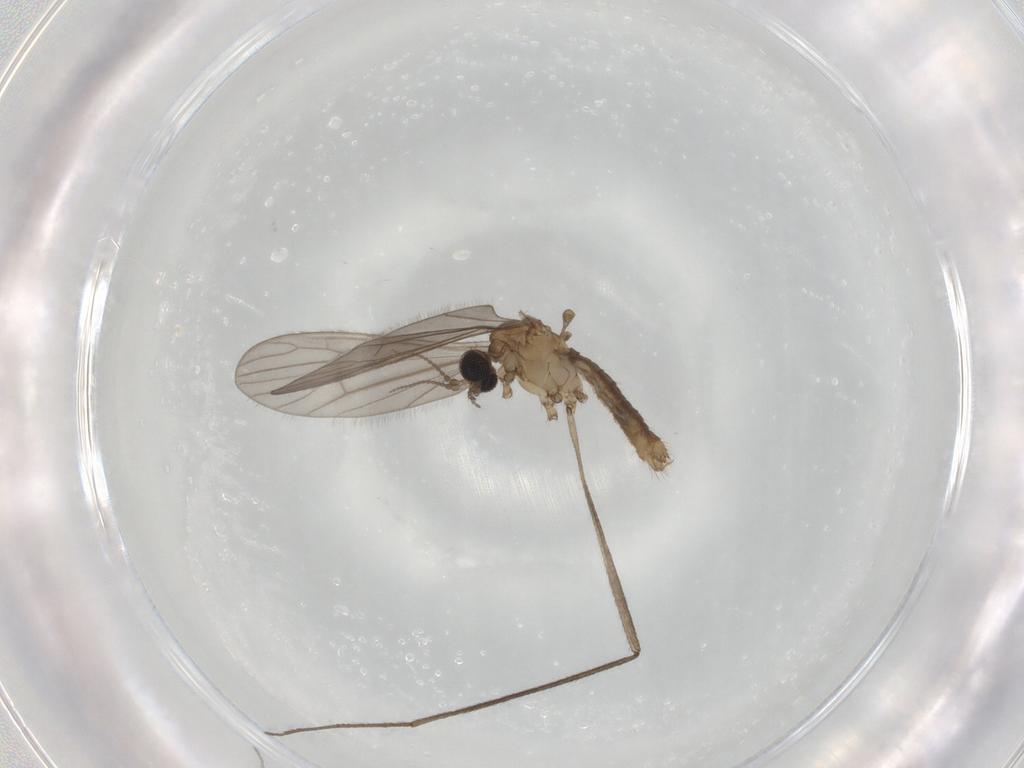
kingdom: Animalia
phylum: Arthropoda
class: Insecta
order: Diptera
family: Limoniidae
